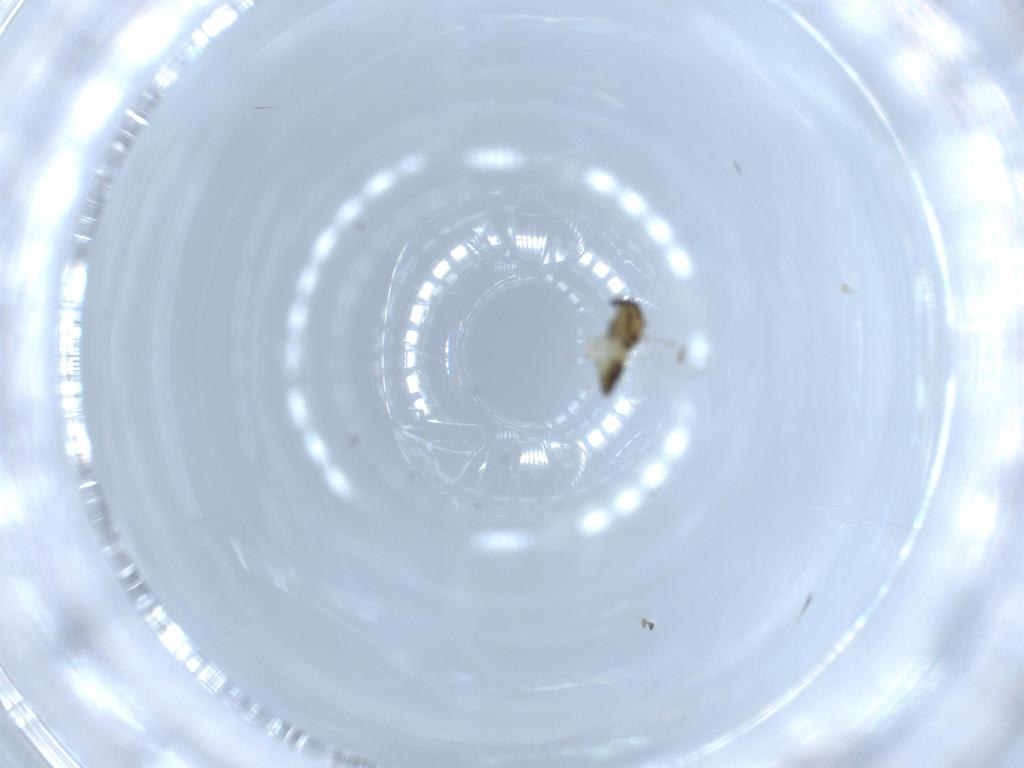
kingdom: Animalia
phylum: Arthropoda
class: Insecta
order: Diptera
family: Chironomidae
